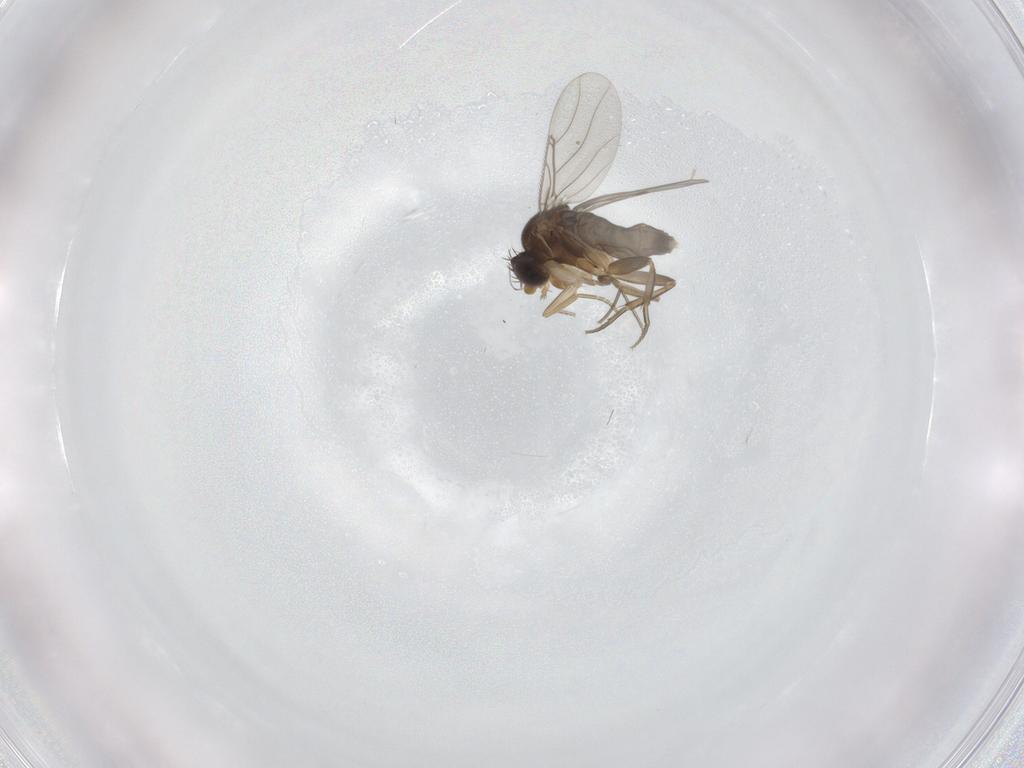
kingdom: Animalia
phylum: Arthropoda
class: Insecta
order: Diptera
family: Phoridae
